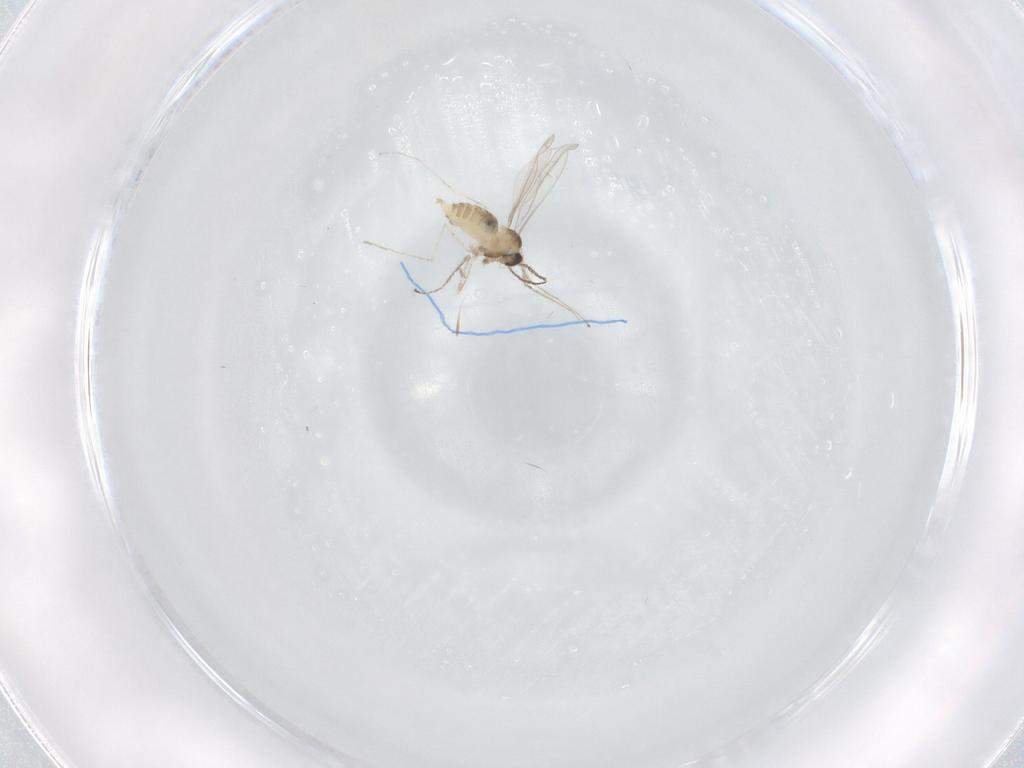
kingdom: Animalia
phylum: Arthropoda
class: Insecta
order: Diptera
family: Cecidomyiidae
